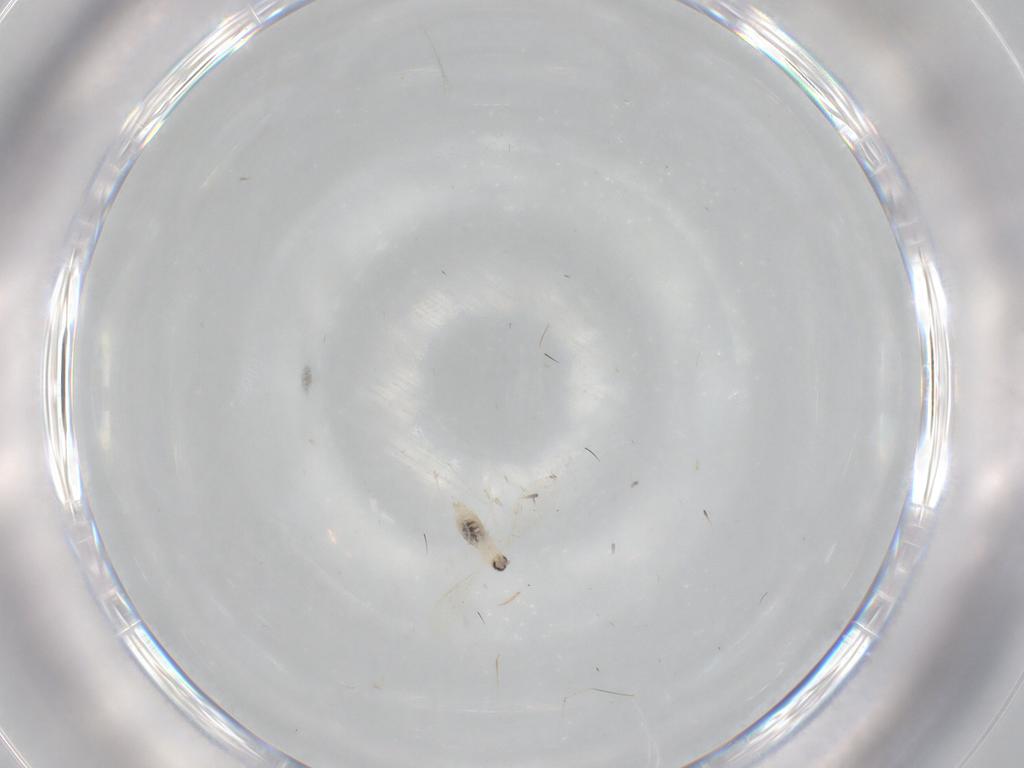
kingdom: Animalia
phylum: Arthropoda
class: Insecta
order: Diptera
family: Cecidomyiidae
